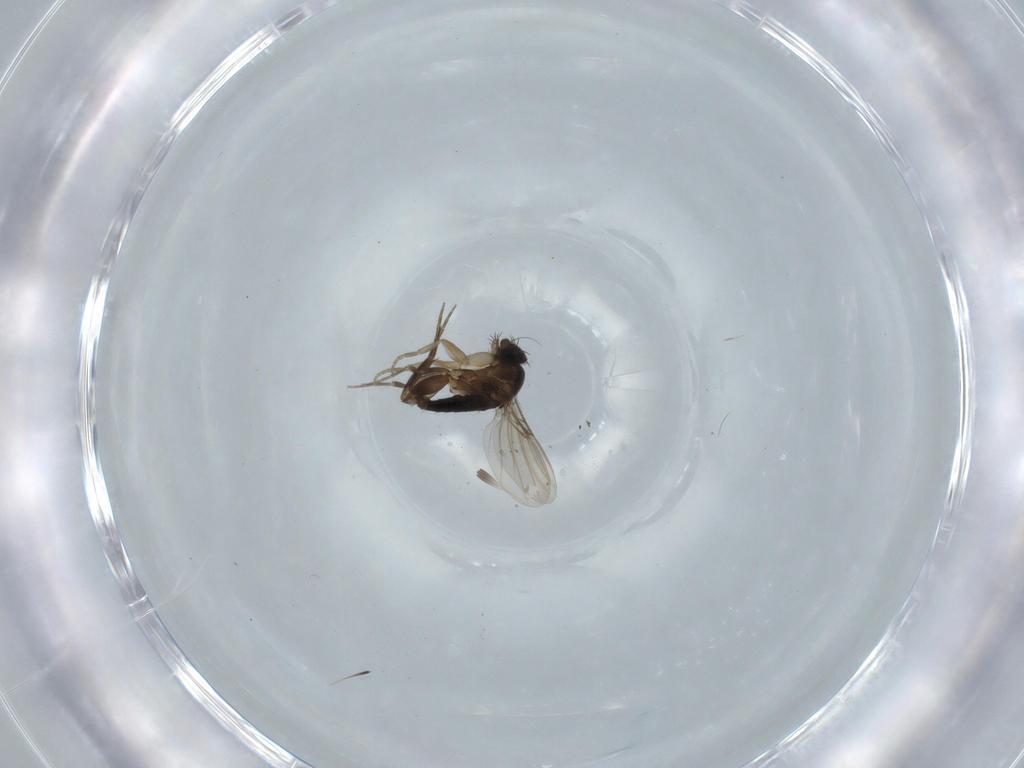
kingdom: Animalia
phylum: Arthropoda
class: Insecta
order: Diptera
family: Phoridae
